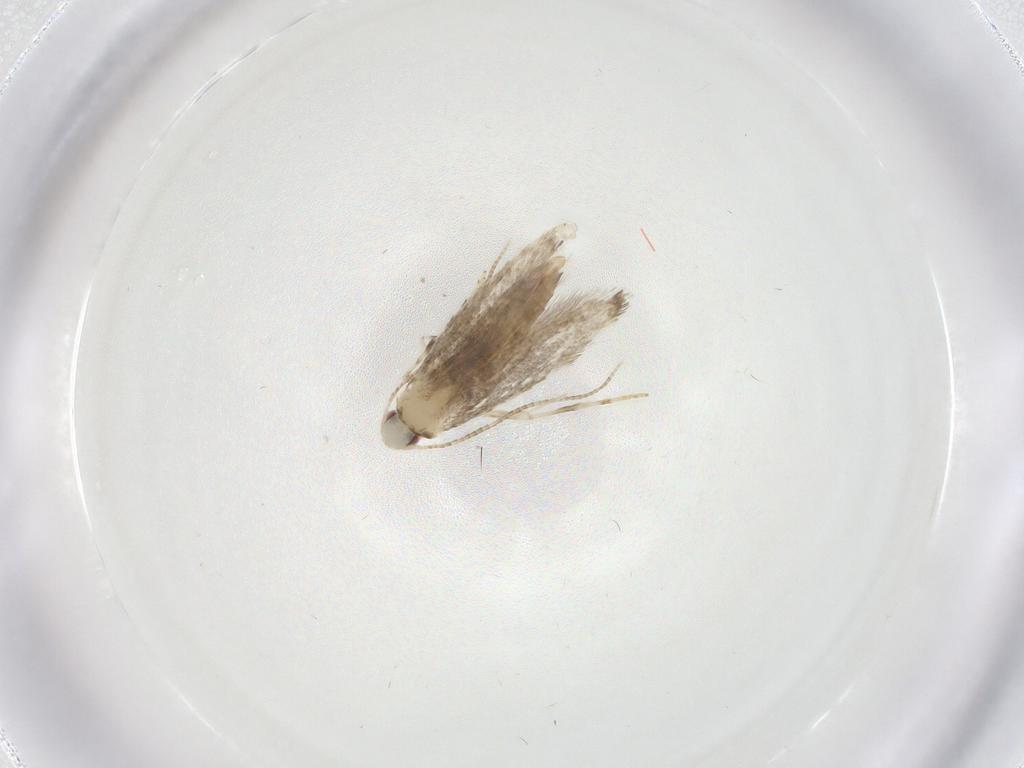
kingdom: Animalia
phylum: Arthropoda
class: Insecta
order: Lepidoptera
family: Gracillariidae
